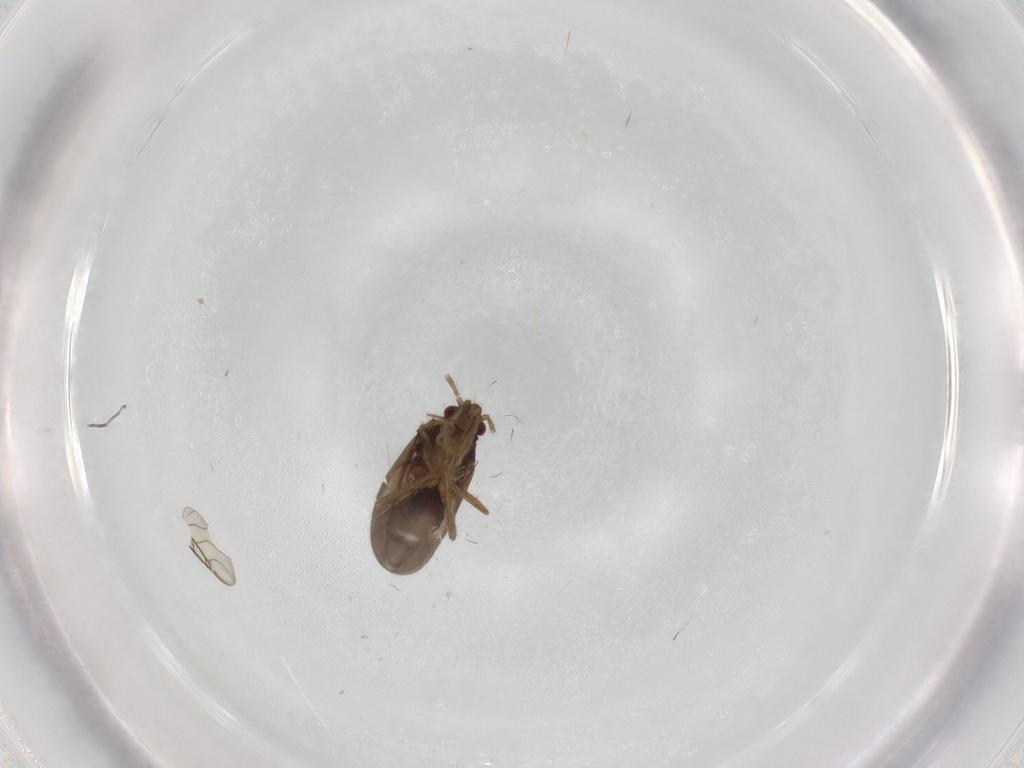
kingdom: Animalia
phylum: Arthropoda
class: Insecta
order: Hemiptera
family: Ceratocombidae
